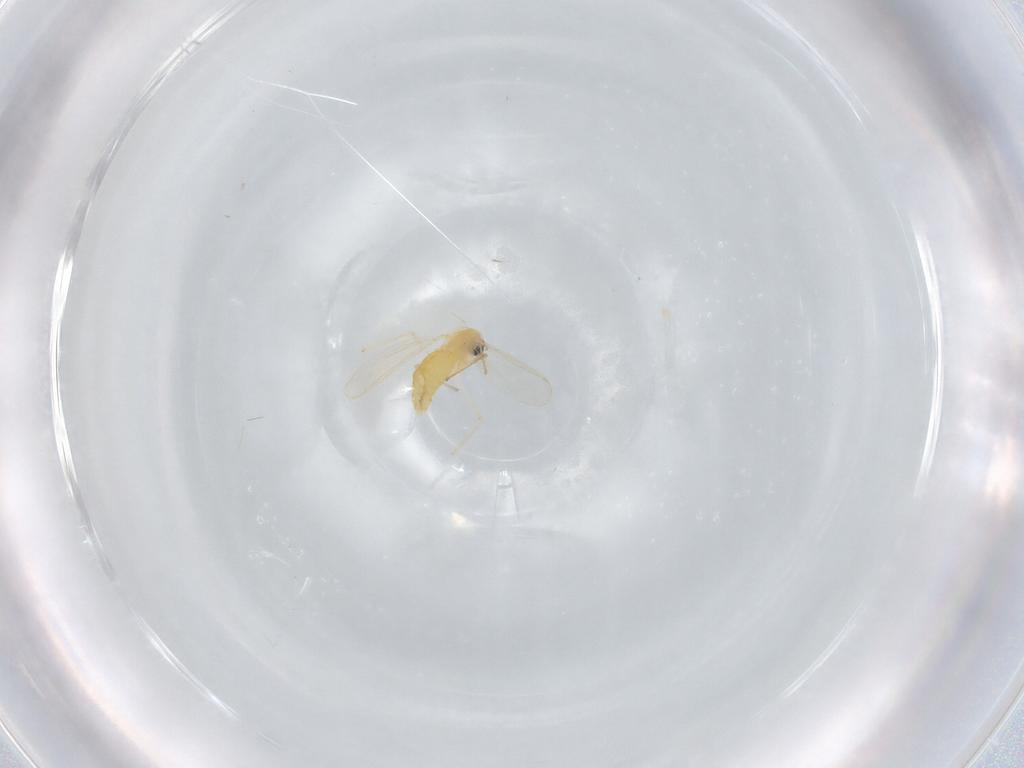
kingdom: Animalia
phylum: Arthropoda
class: Insecta
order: Diptera
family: Chironomidae
